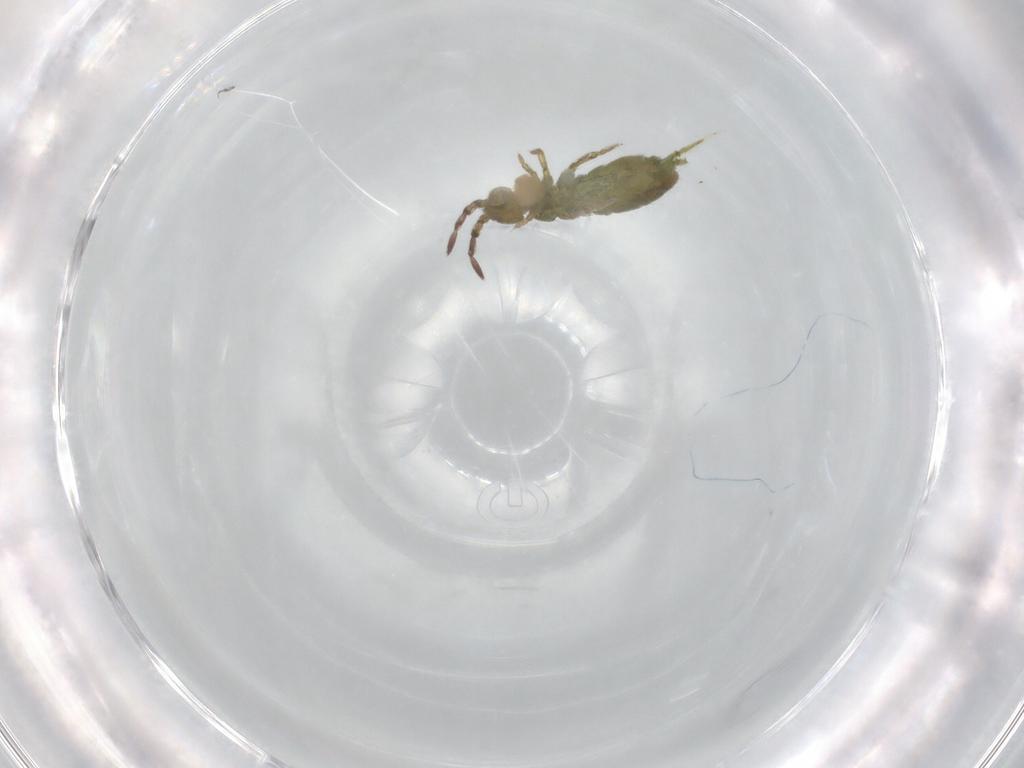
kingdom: Animalia
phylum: Arthropoda
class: Collembola
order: Entomobryomorpha
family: Isotomidae
